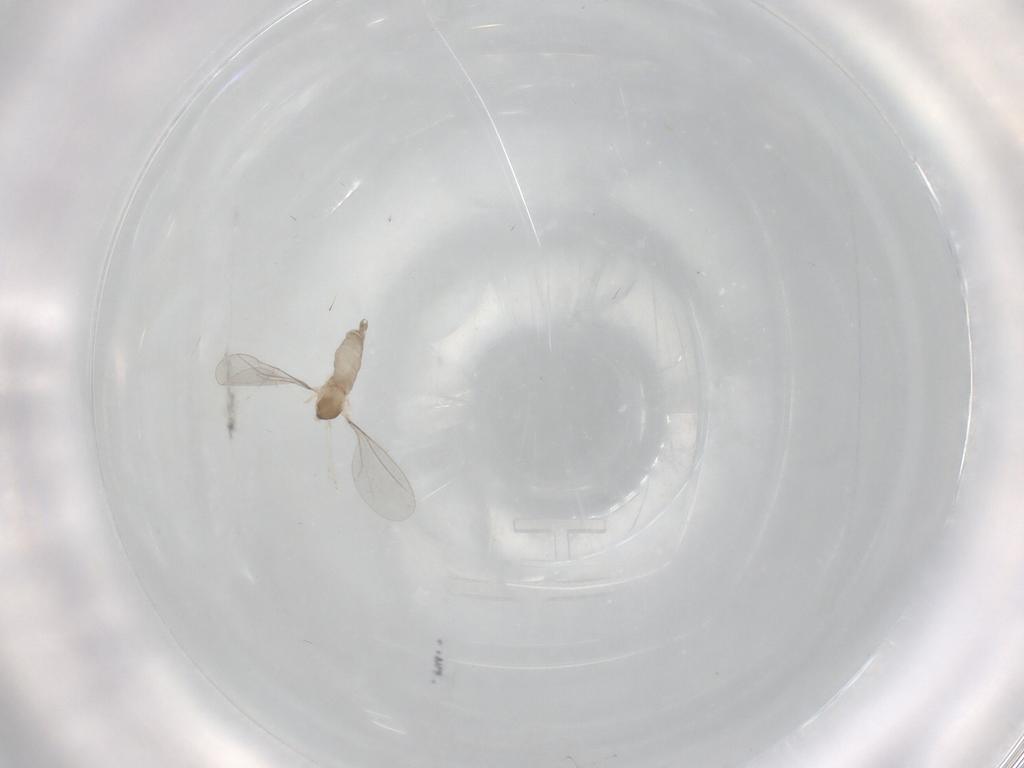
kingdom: Animalia
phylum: Arthropoda
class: Insecta
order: Diptera
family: Cecidomyiidae
